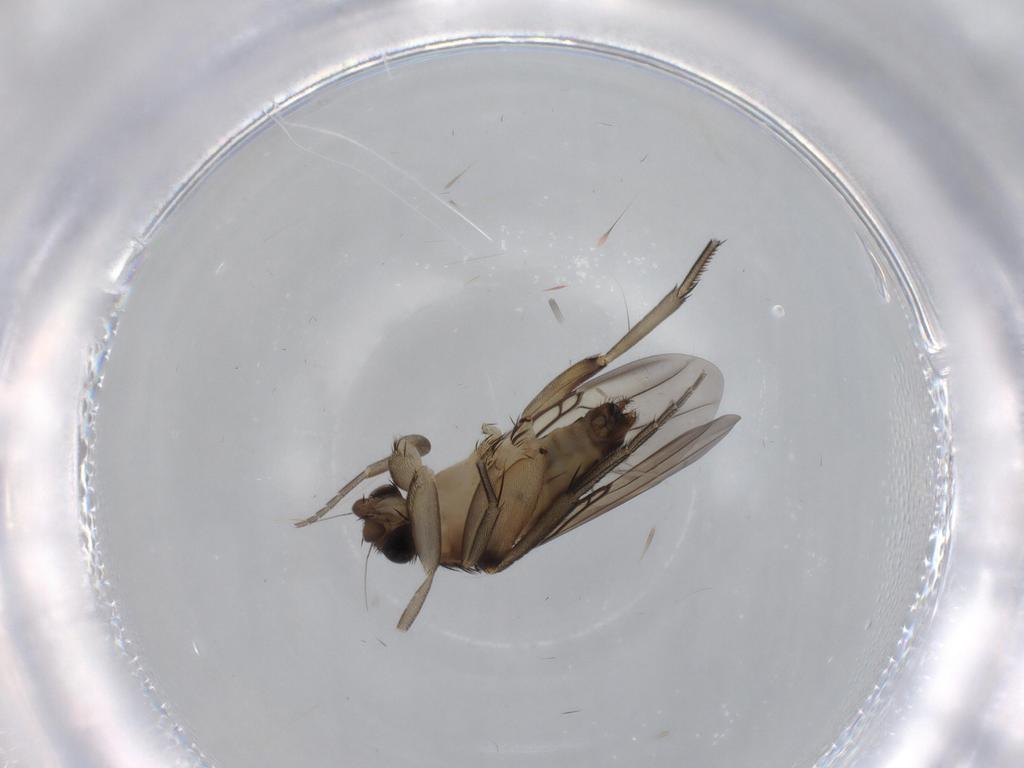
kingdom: Animalia
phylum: Arthropoda
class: Insecta
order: Diptera
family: Phoridae
